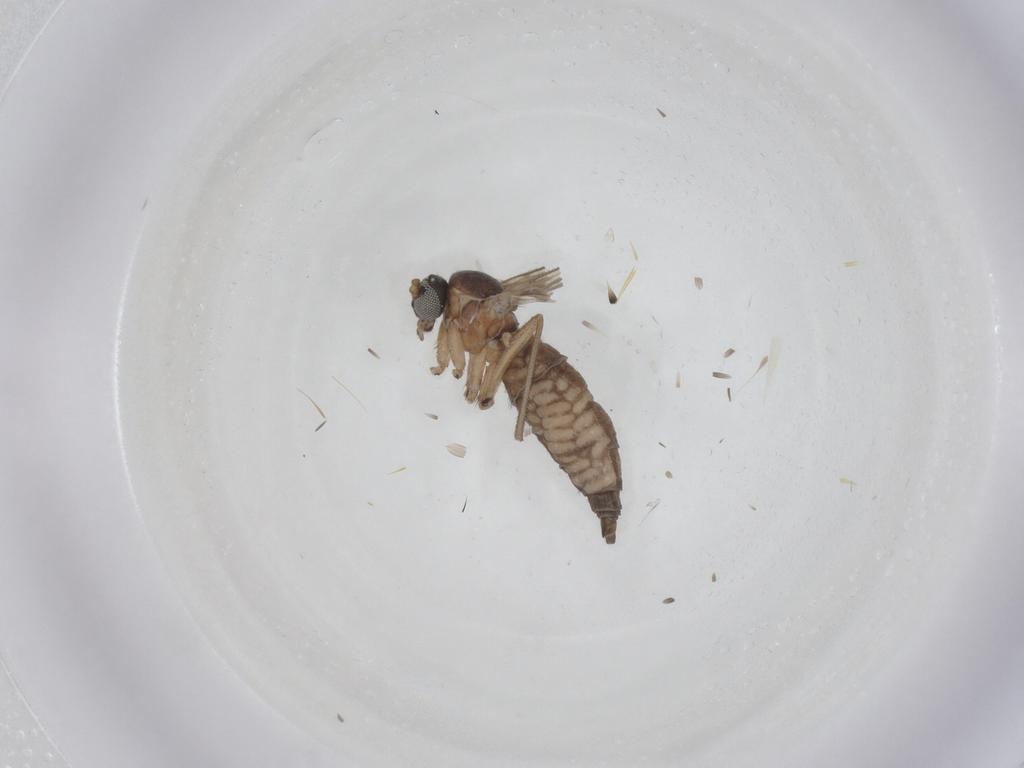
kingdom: Animalia
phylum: Arthropoda
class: Insecta
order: Diptera
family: Sciaridae
